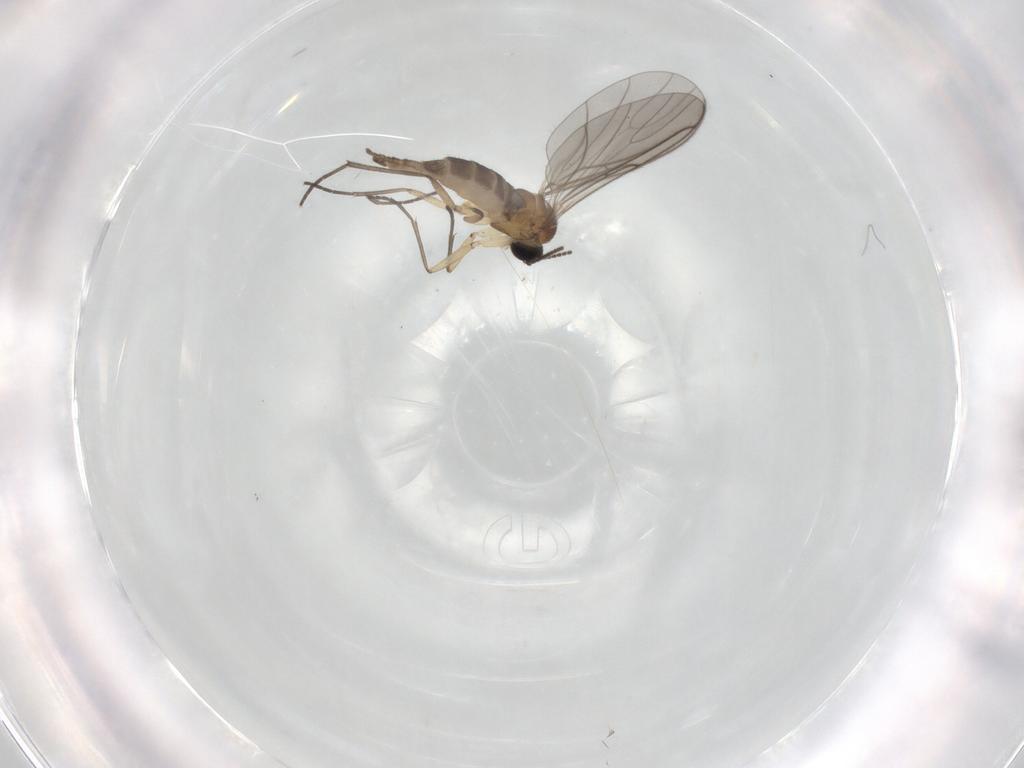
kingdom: Animalia
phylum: Arthropoda
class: Insecta
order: Diptera
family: Sciaridae
